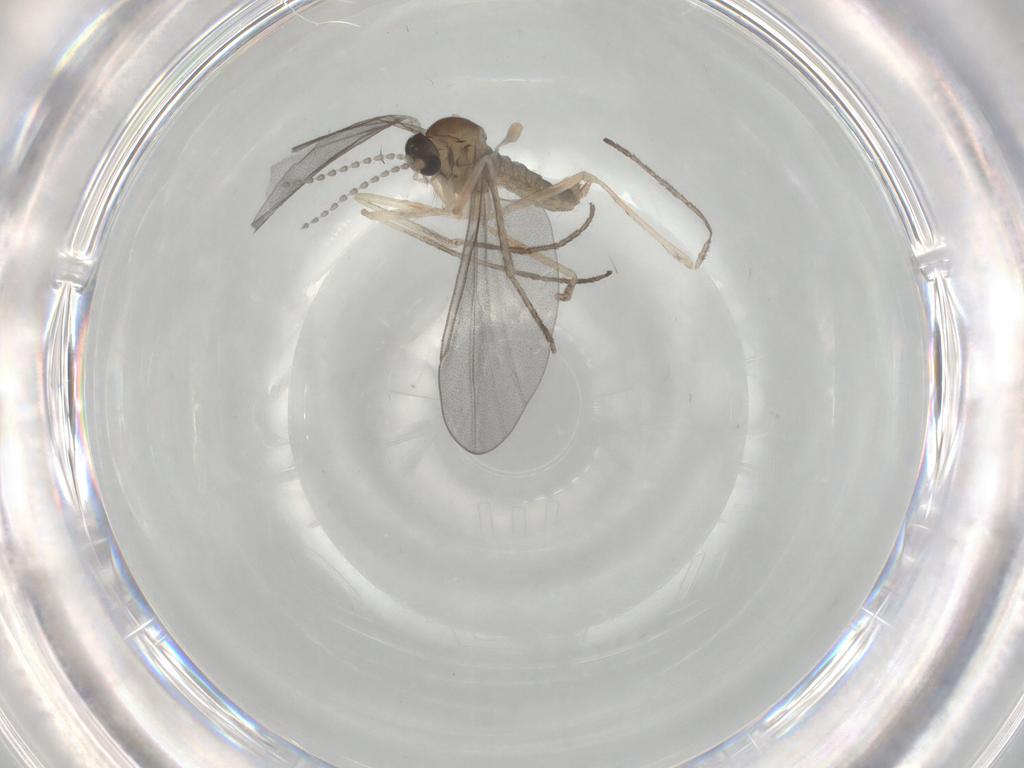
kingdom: Animalia
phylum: Arthropoda
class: Insecta
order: Diptera
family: Cecidomyiidae
